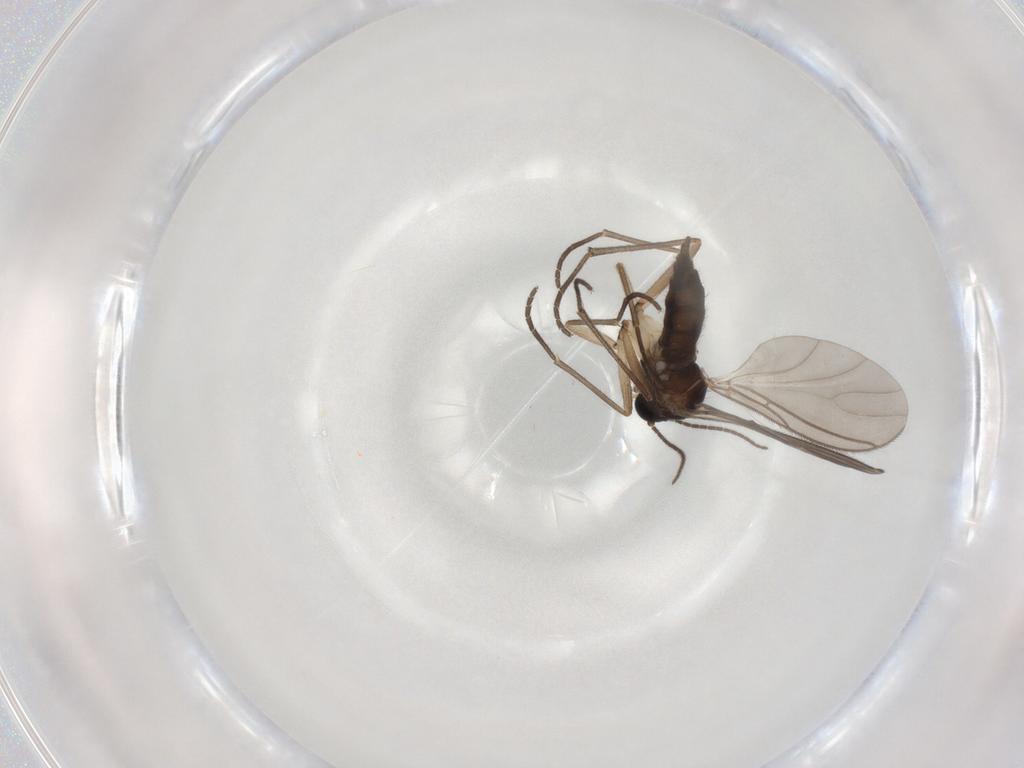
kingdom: Animalia
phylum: Arthropoda
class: Insecta
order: Diptera
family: Sciaridae
